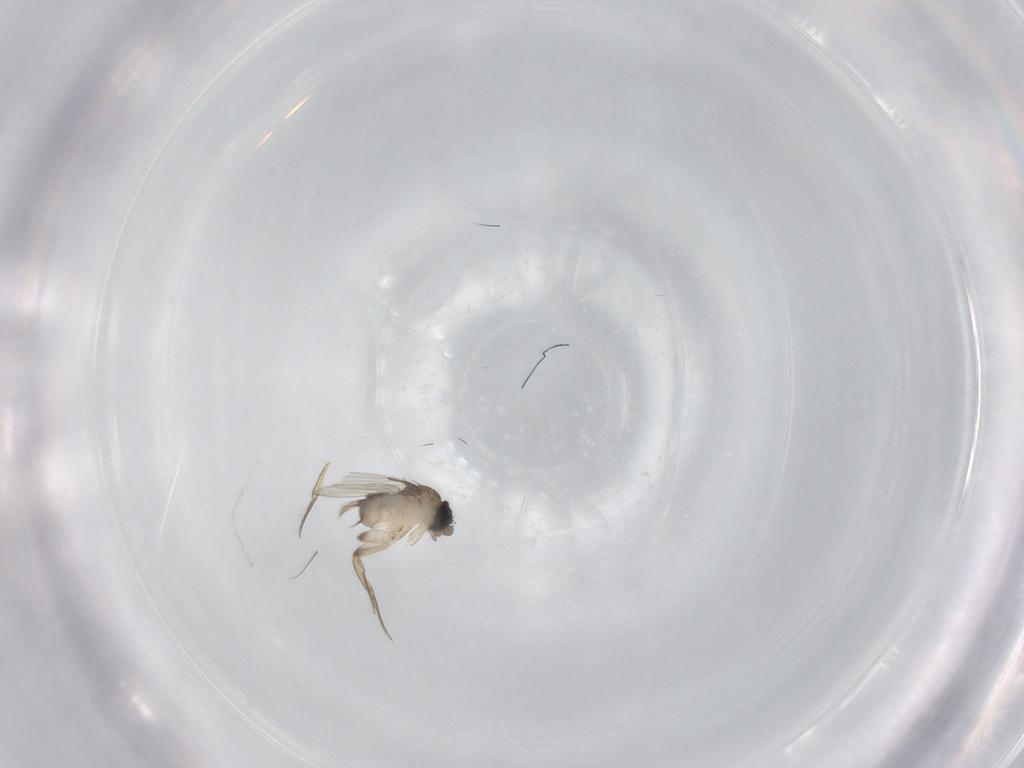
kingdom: Animalia
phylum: Arthropoda
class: Insecta
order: Diptera
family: Phoridae
